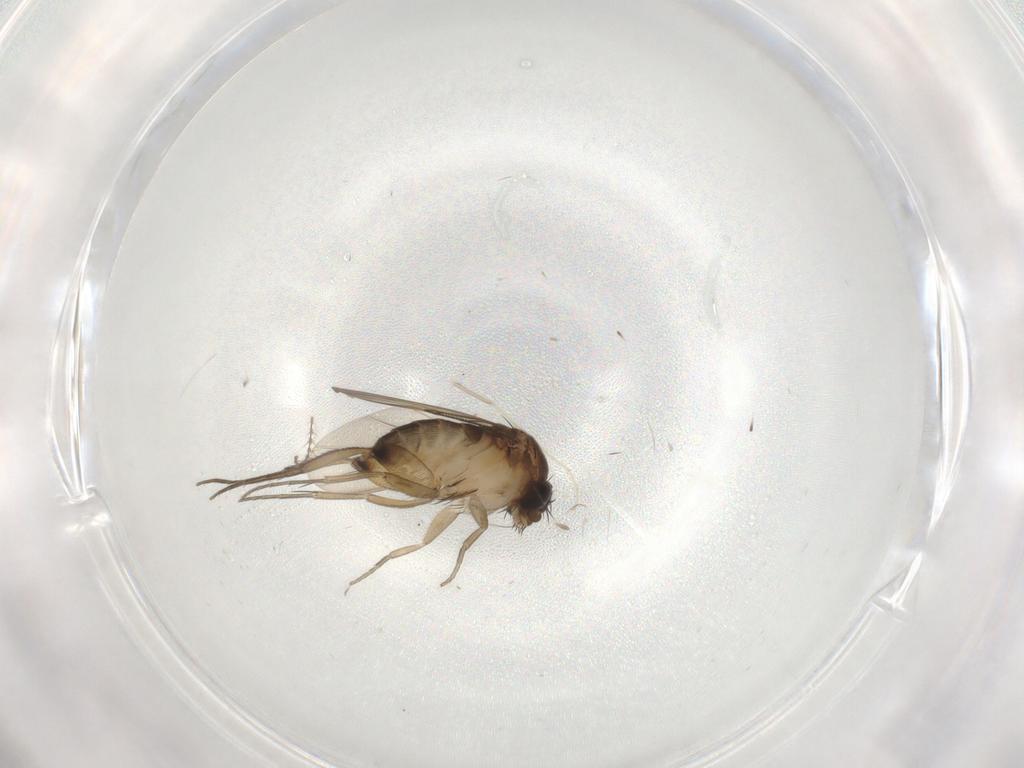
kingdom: Animalia
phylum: Arthropoda
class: Insecta
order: Diptera
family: Phoridae
